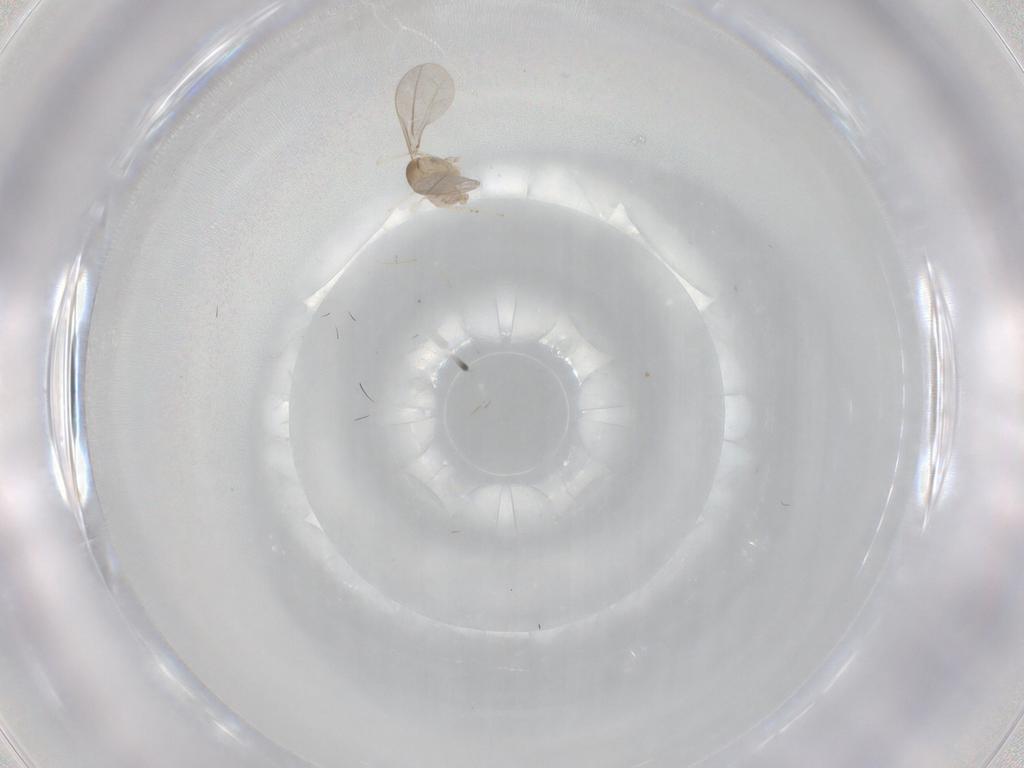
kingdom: Animalia
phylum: Arthropoda
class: Insecta
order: Diptera
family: Cecidomyiidae
